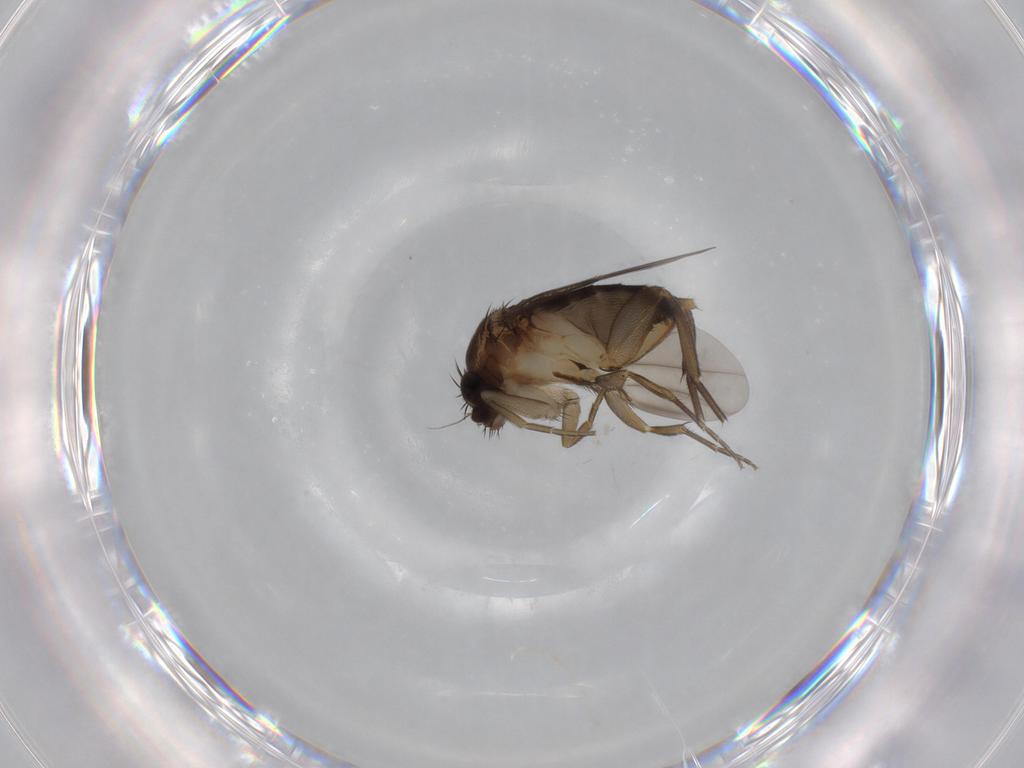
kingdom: Animalia
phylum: Arthropoda
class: Insecta
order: Diptera
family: Phoridae
